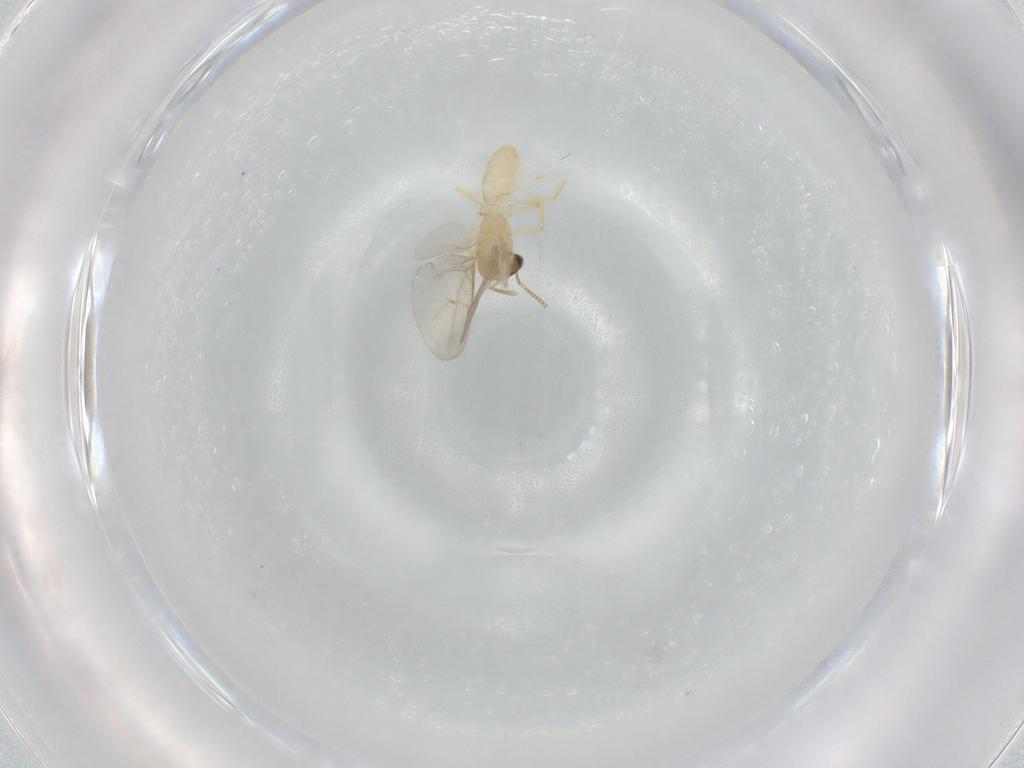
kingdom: Animalia
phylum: Arthropoda
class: Insecta
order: Hymenoptera
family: Formicidae
